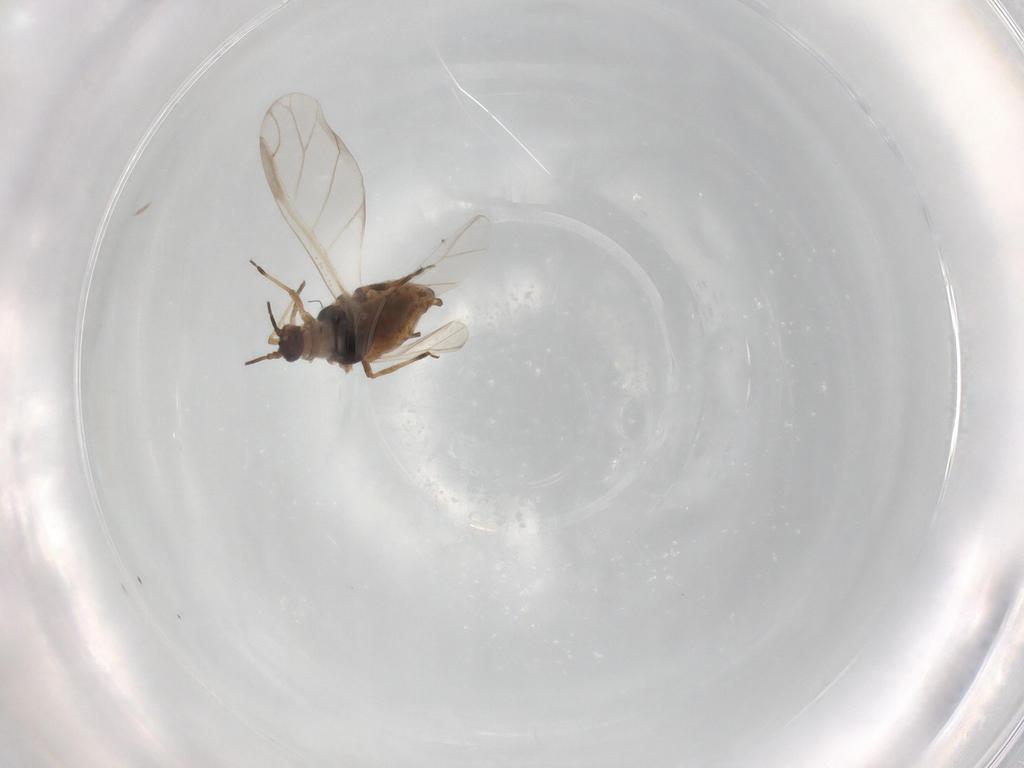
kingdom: Animalia
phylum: Arthropoda
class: Insecta
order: Hemiptera
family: Aphididae
